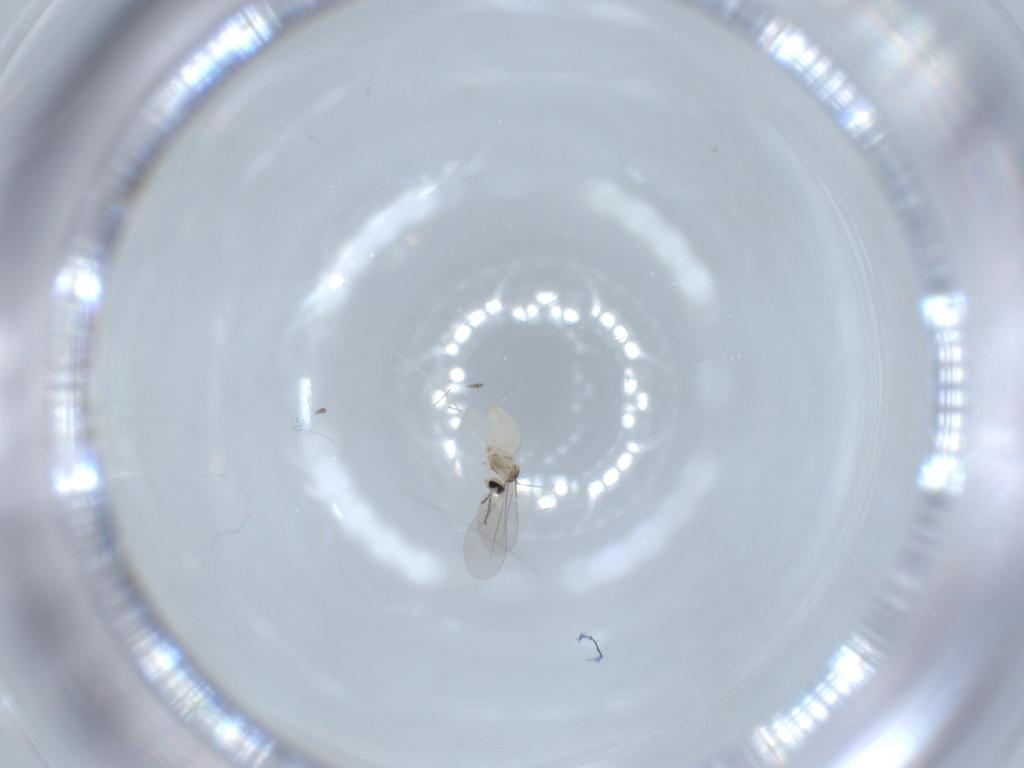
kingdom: Animalia
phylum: Arthropoda
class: Insecta
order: Diptera
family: Cecidomyiidae
